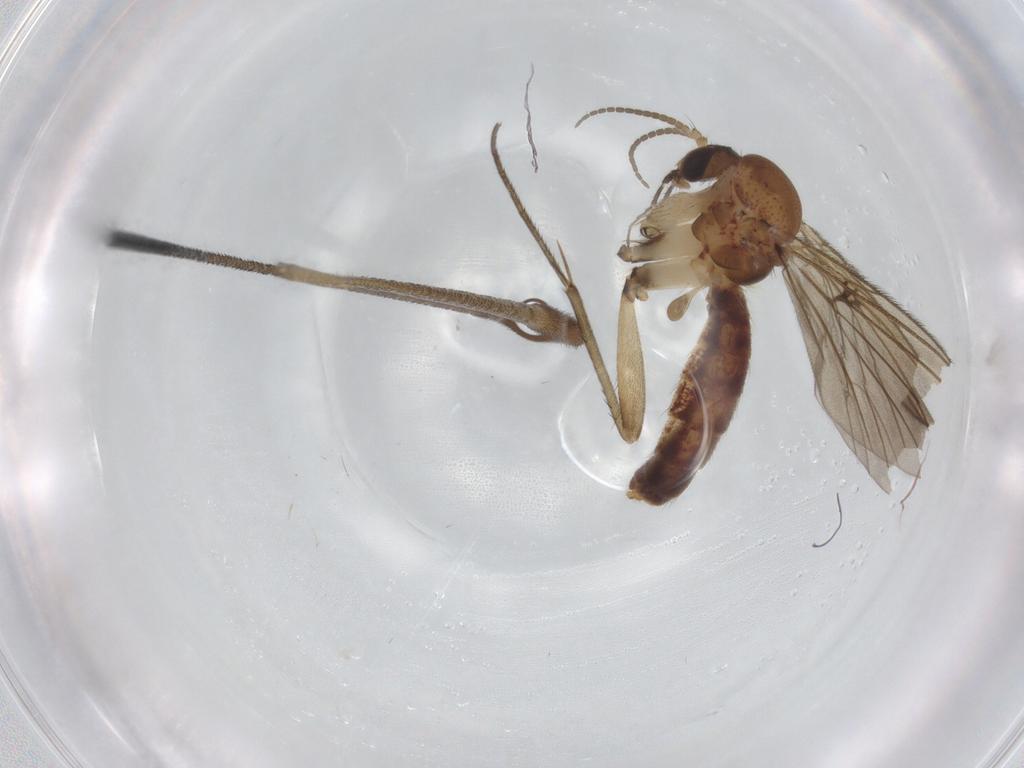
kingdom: Animalia
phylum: Arthropoda
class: Insecta
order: Diptera
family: Limoniidae
